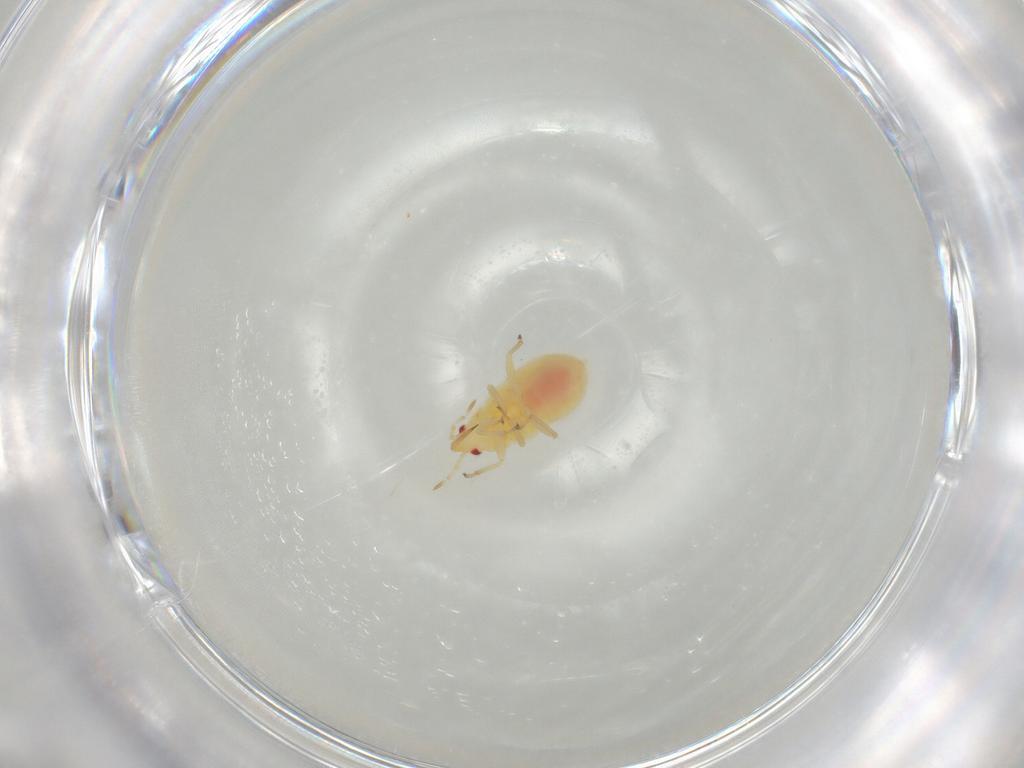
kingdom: Animalia
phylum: Arthropoda
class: Insecta
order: Hemiptera
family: Anthocoridae
